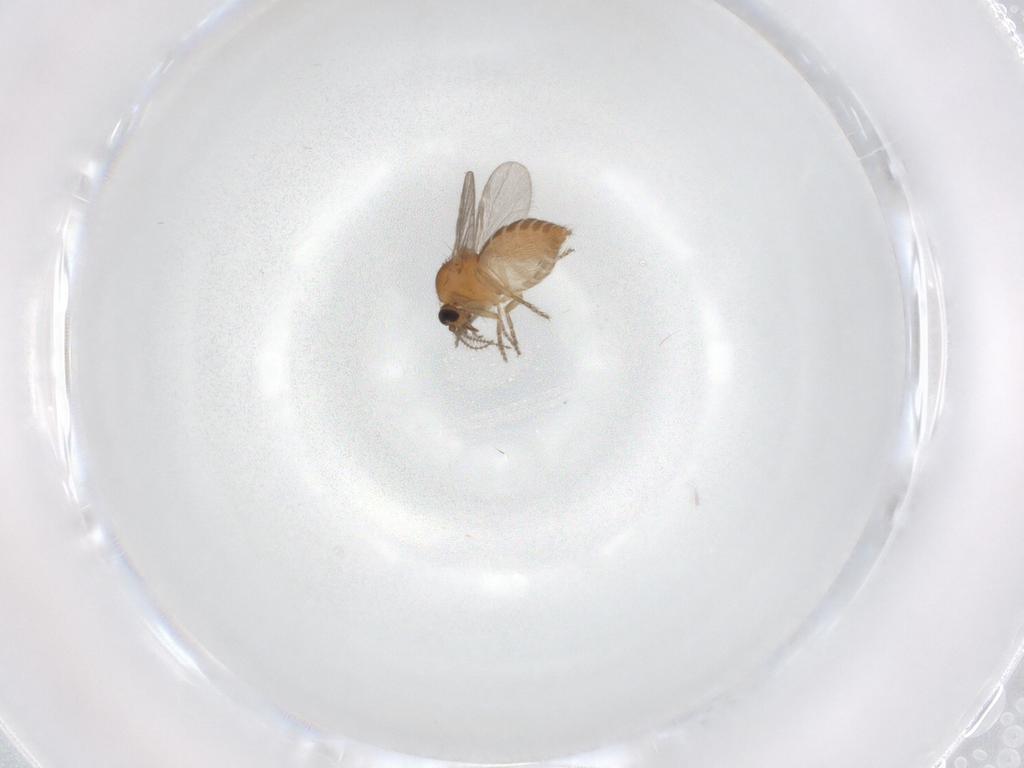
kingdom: Animalia
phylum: Arthropoda
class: Insecta
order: Diptera
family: Ceratopogonidae
